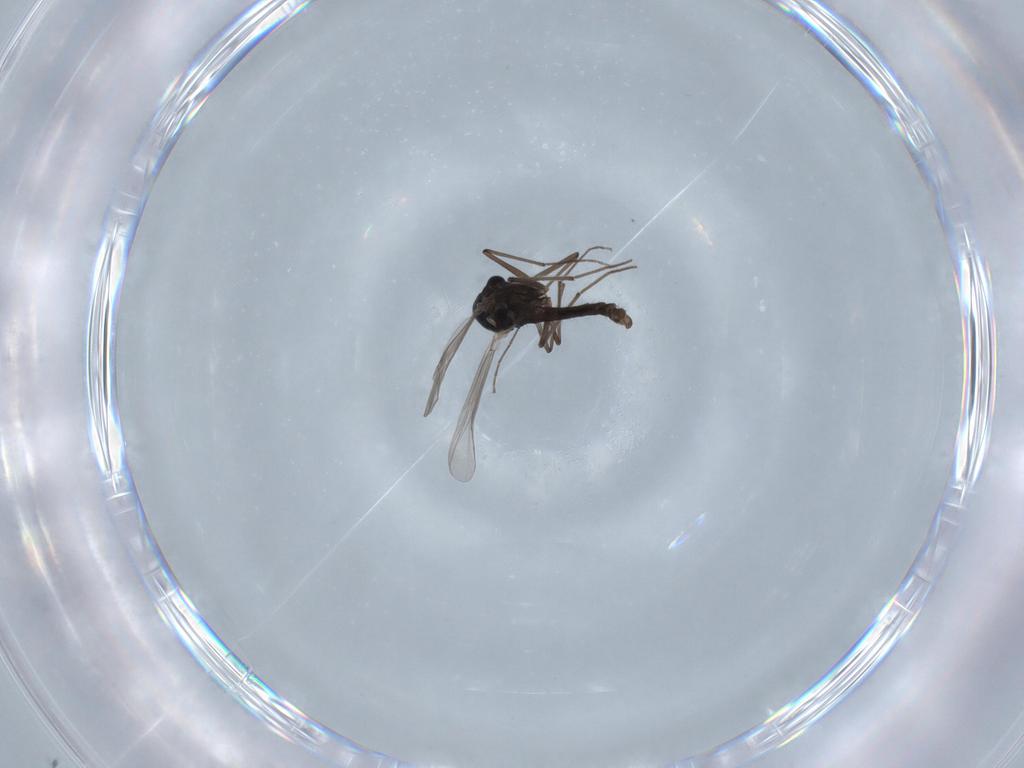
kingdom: Animalia
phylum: Arthropoda
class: Insecta
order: Diptera
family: Chironomidae
